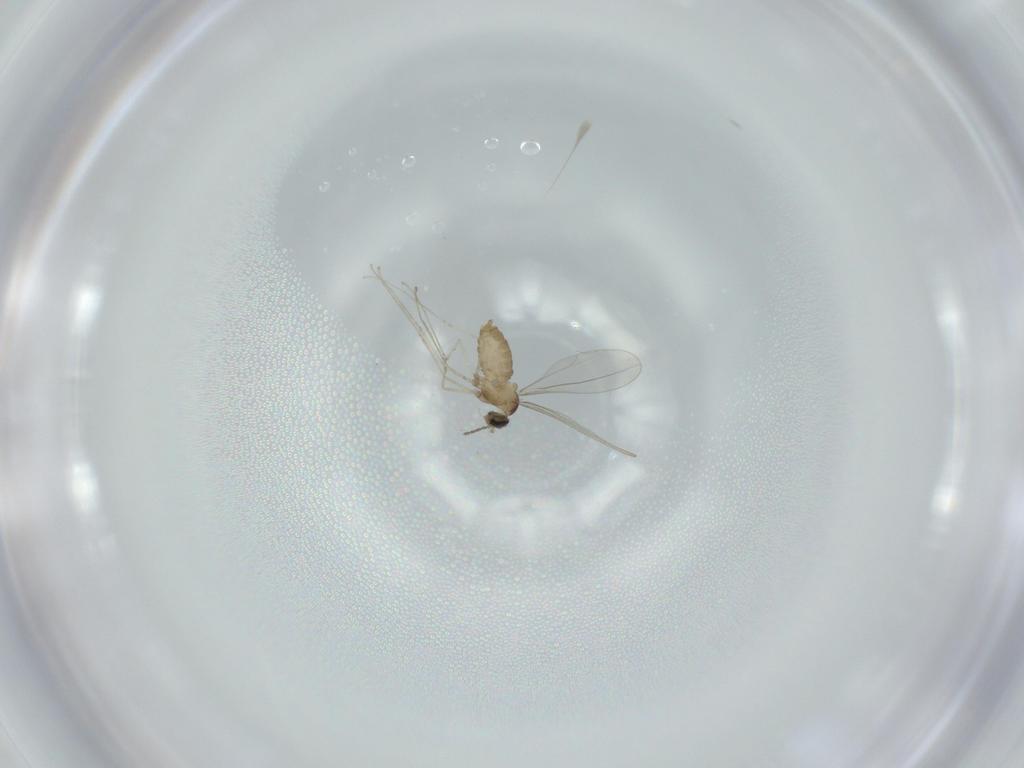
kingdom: Animalia
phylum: Arthropoda
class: Insecta
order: Diptera
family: Cecidomyiidae
